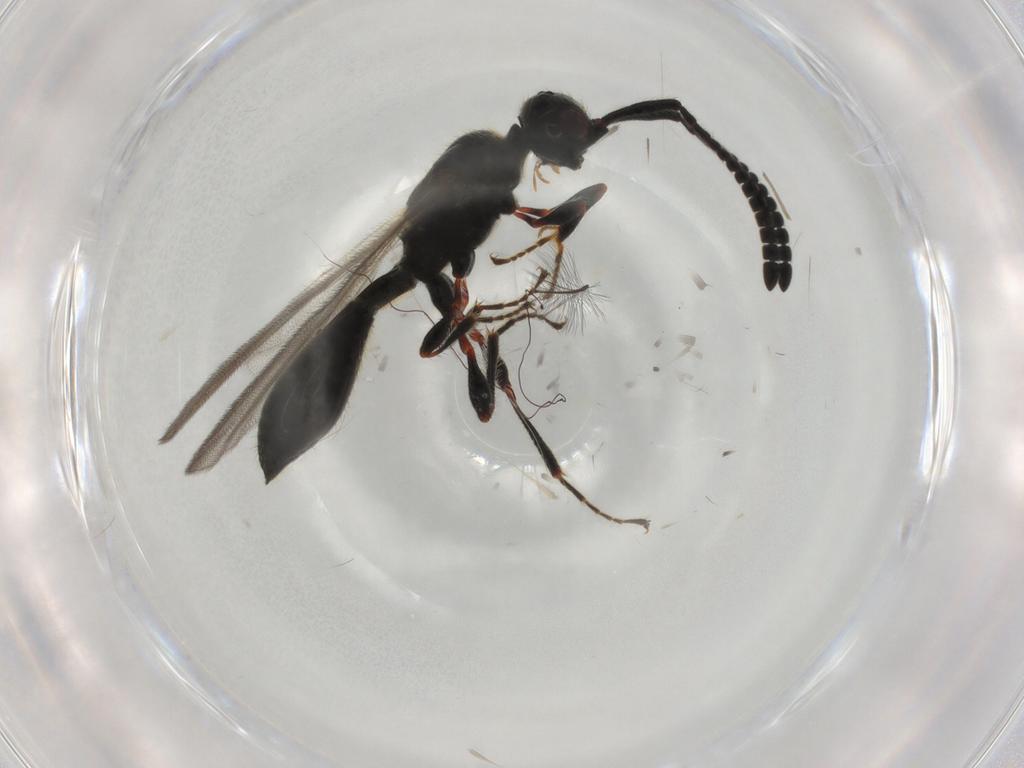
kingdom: Animalia
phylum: Arthropoda
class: Insecta
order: Hymenoptera
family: Diapriidae
